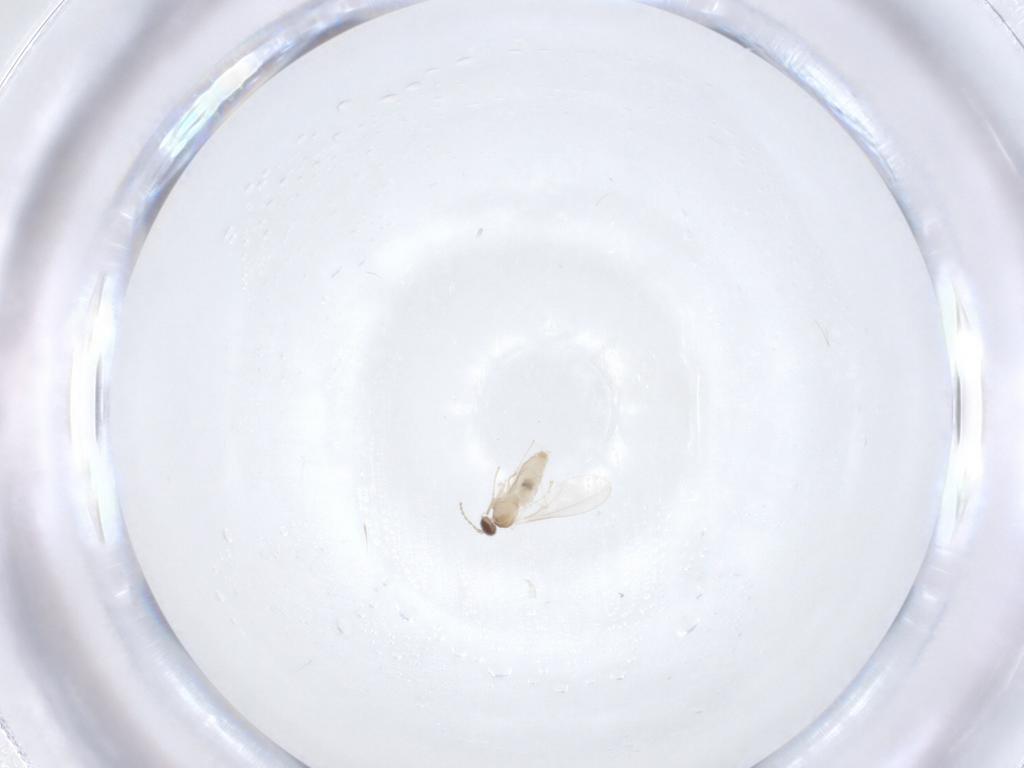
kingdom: Animalia
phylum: Arthropoda
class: Insecta
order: Diptera
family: Cecidomyiidae
